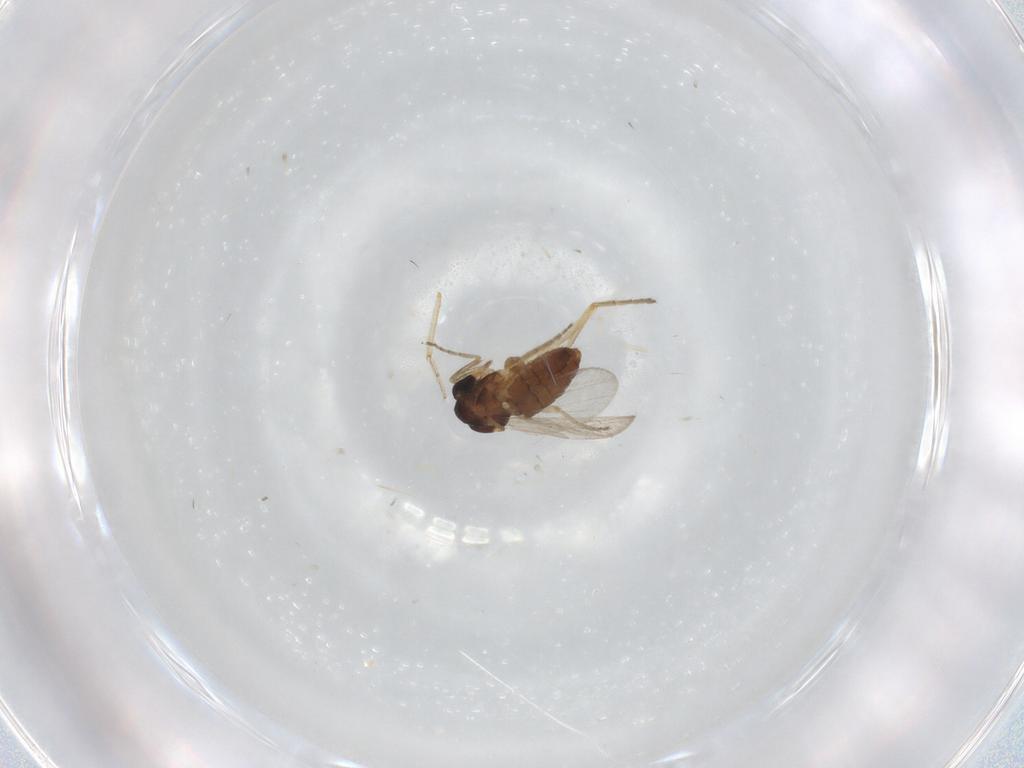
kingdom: Animalia
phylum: Arthropoda
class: Insecta
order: Diptera
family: Ceratopogonidae
